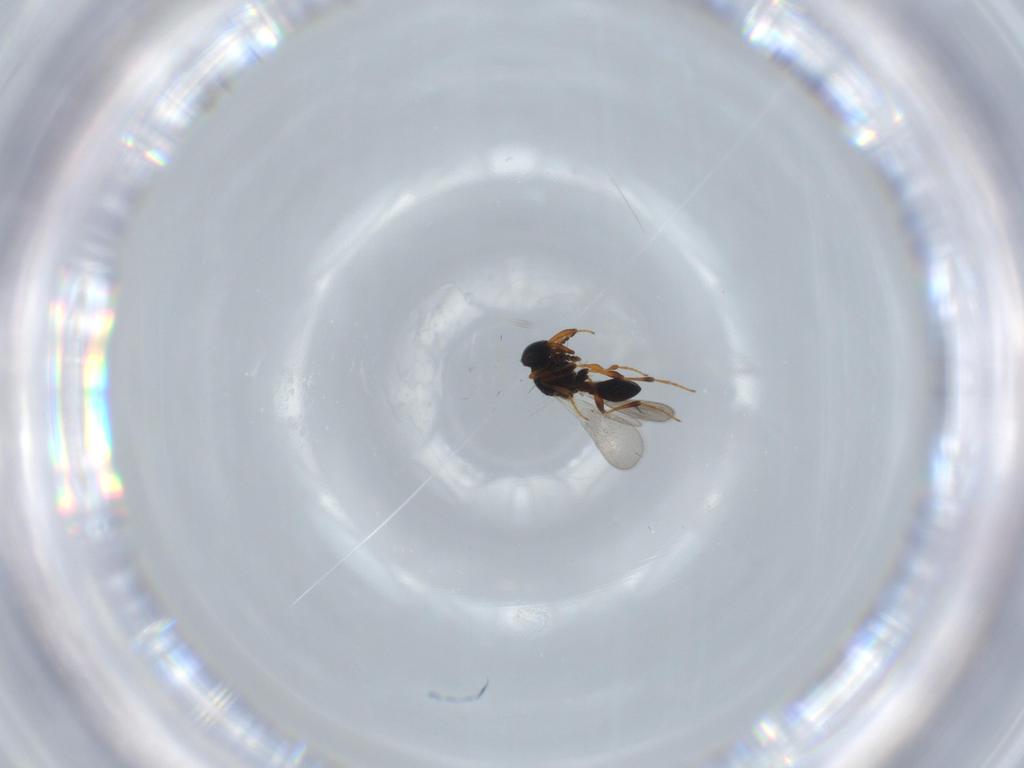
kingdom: Animalia
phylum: Arthropoda
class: Insecta
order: Hymenoptera
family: Platygastridae
